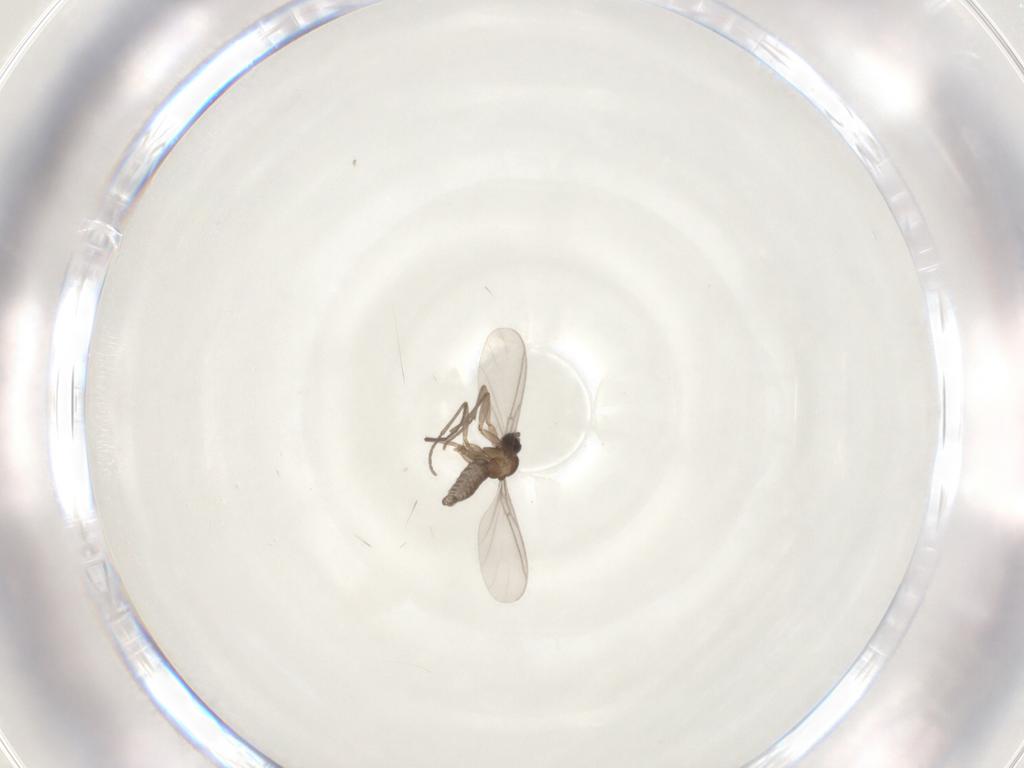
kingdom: Animalia
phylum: Arthropoda
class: Insecta
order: Diptera
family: Sciaridae
